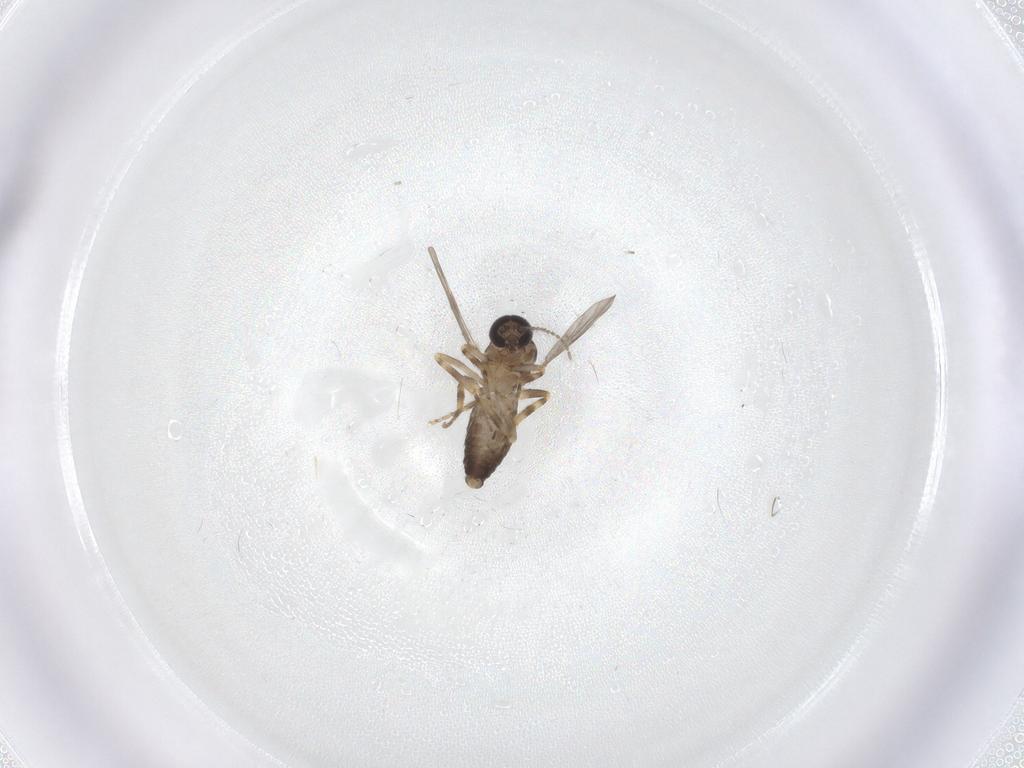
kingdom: Animalia
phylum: Arthropoda
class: Insecta
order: Diptera
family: Ceratopogonidae
